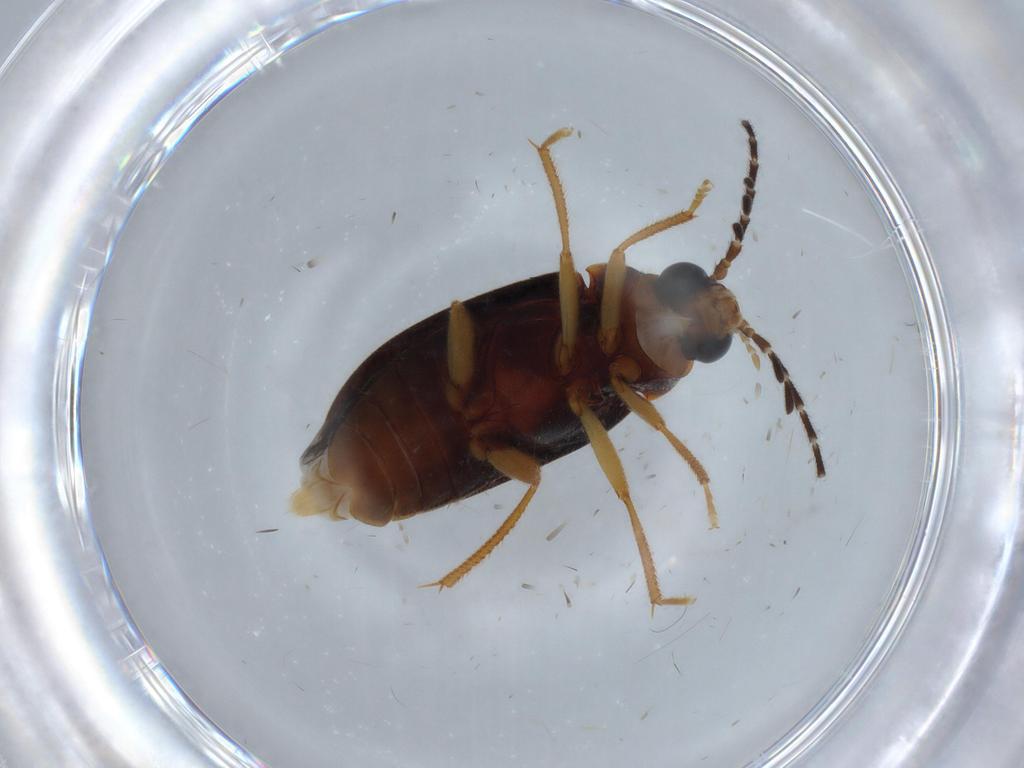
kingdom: Animalia
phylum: Arthropoda
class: Insecta
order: Coleoptera
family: Ptilodactylidae
